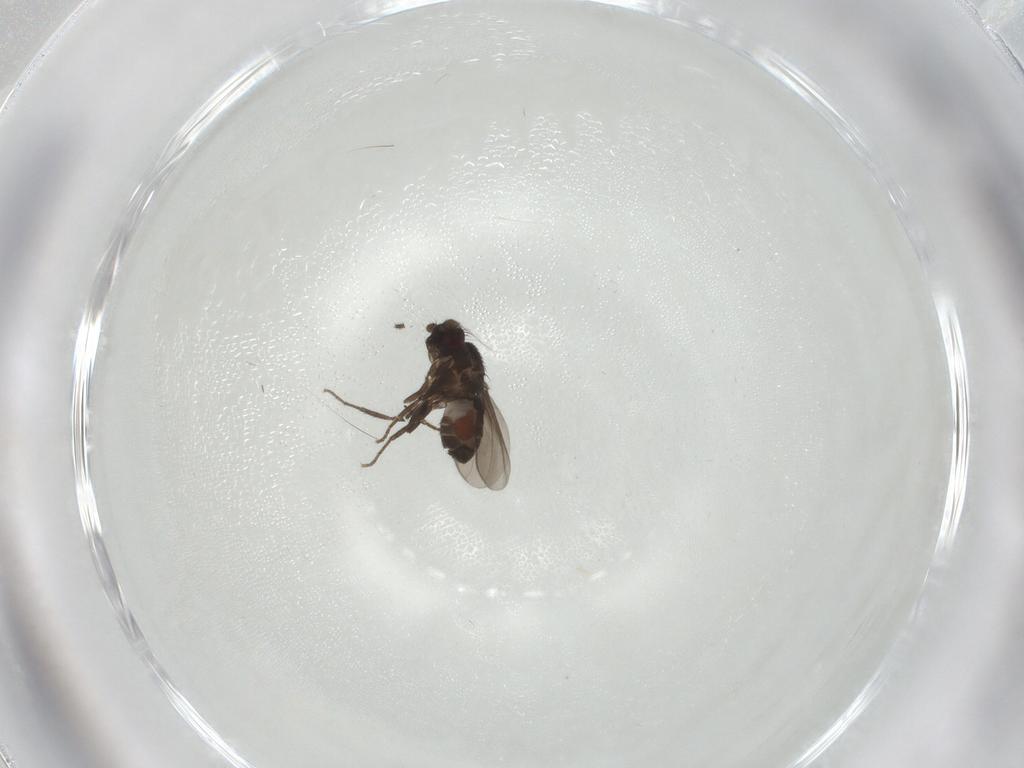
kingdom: Animalia
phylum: Arthropoda
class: Insecta
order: Diptera
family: Sphaeroceridae
